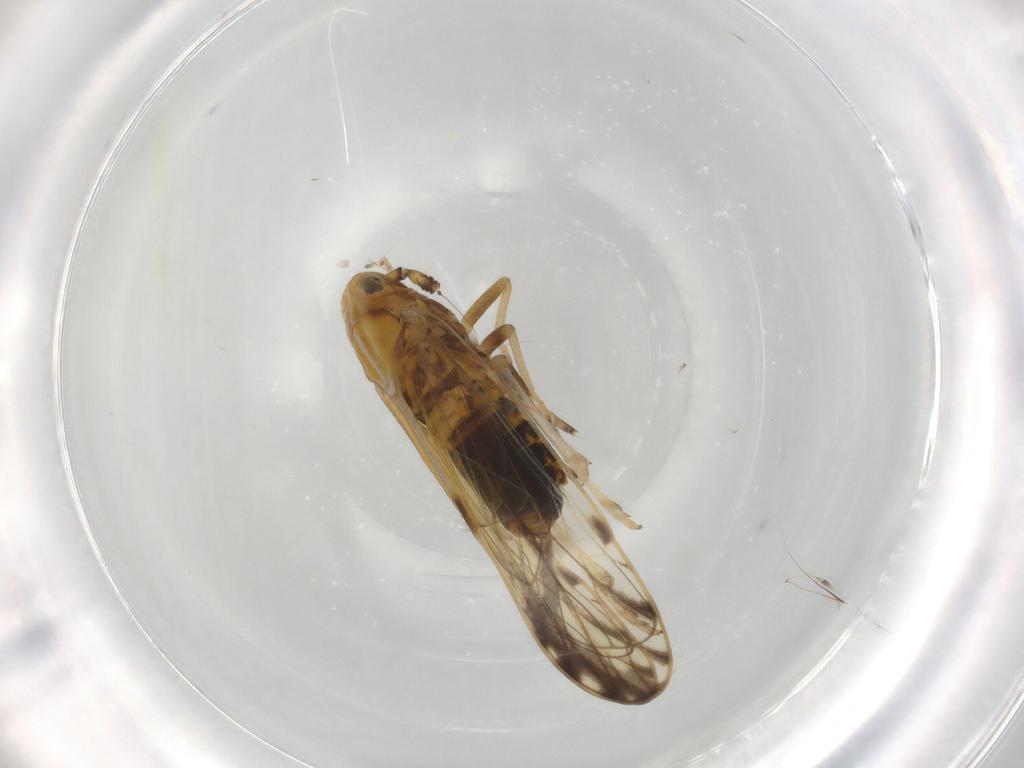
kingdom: Animalia
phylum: Arthropoda
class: Insecta
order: Hemiptera
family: Delphacidae
